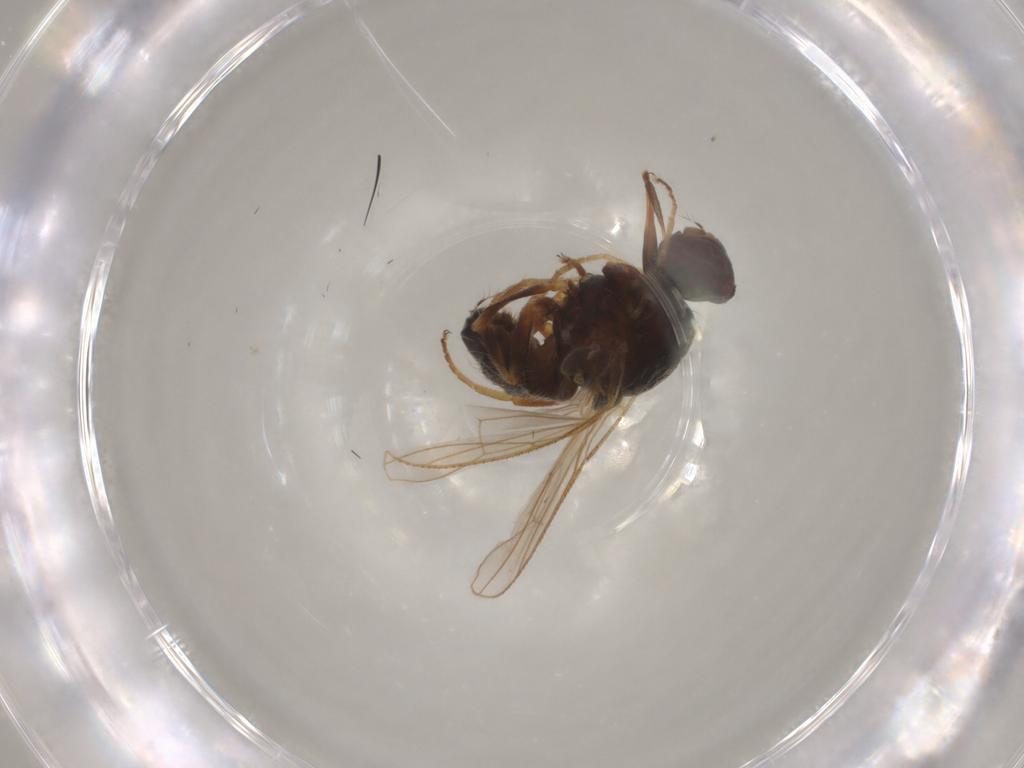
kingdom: Animalia
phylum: Arthropoda
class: Insecta
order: Diptera
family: Muscidae
